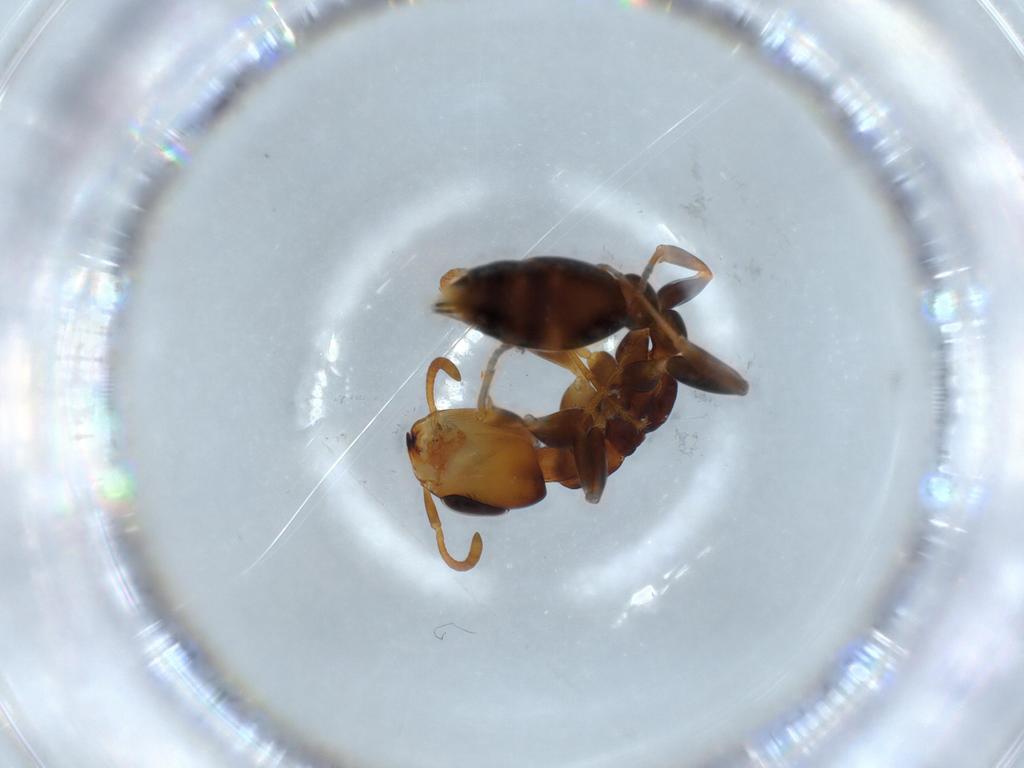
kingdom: Animalia
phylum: Arthropoda
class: Insecta
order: Hymenoptera
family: Formicidae
